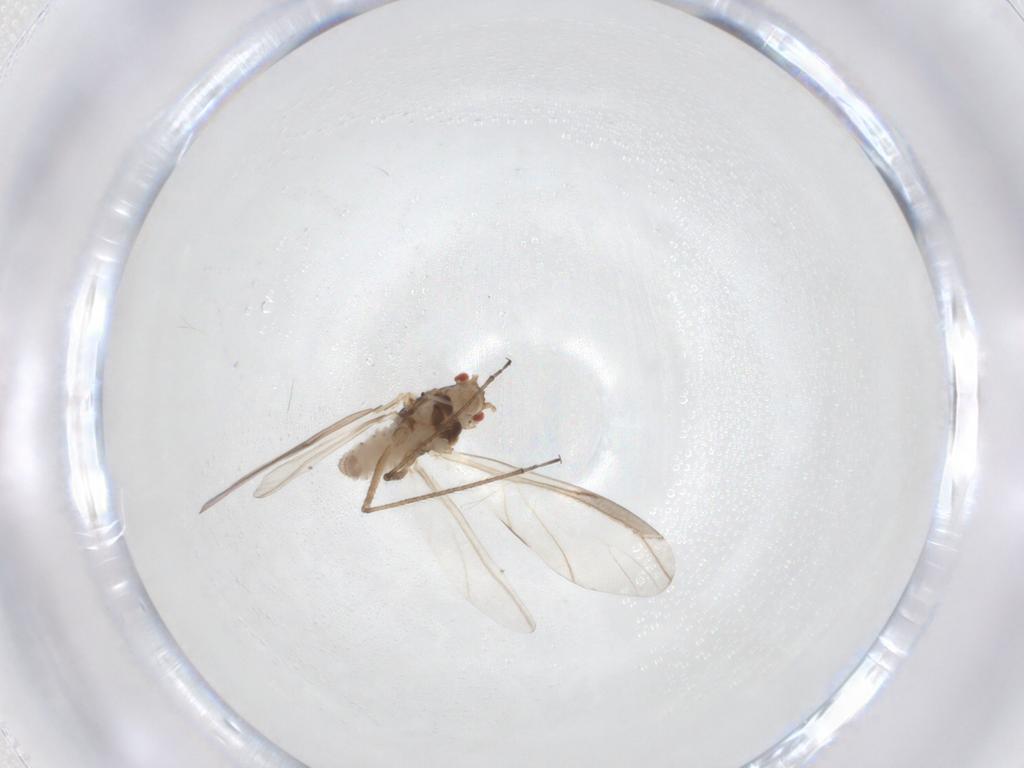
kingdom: Animalia
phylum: Arthropoda
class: Insecta
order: Hemiptera
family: Aphididae
